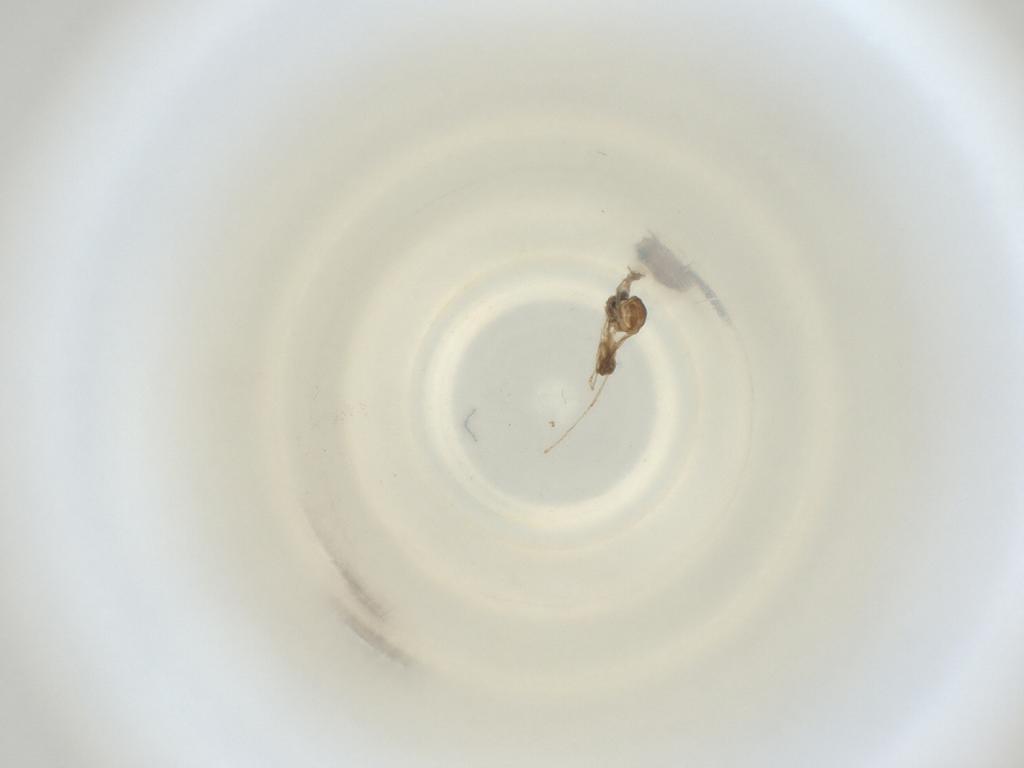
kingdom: Animalia
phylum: Arthropoda
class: Insecta
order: Diptera
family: Cecidomyiidae
